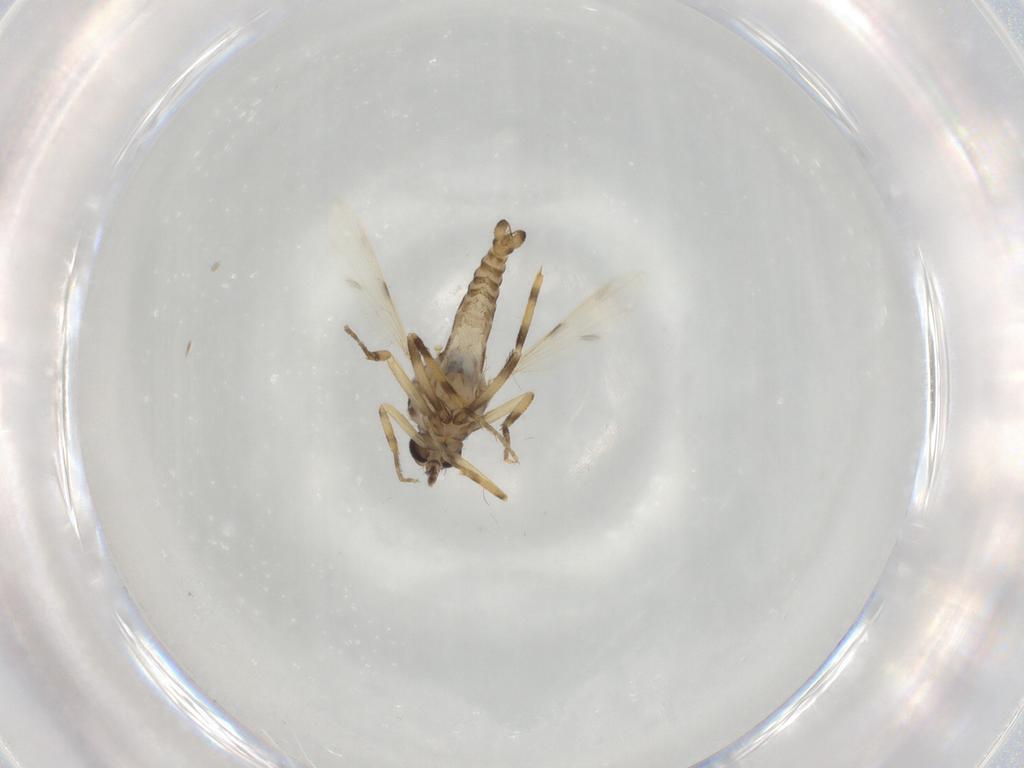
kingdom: Animalia
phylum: Arthropoda
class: Insecta
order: Diptera
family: Ceratopogonidae
